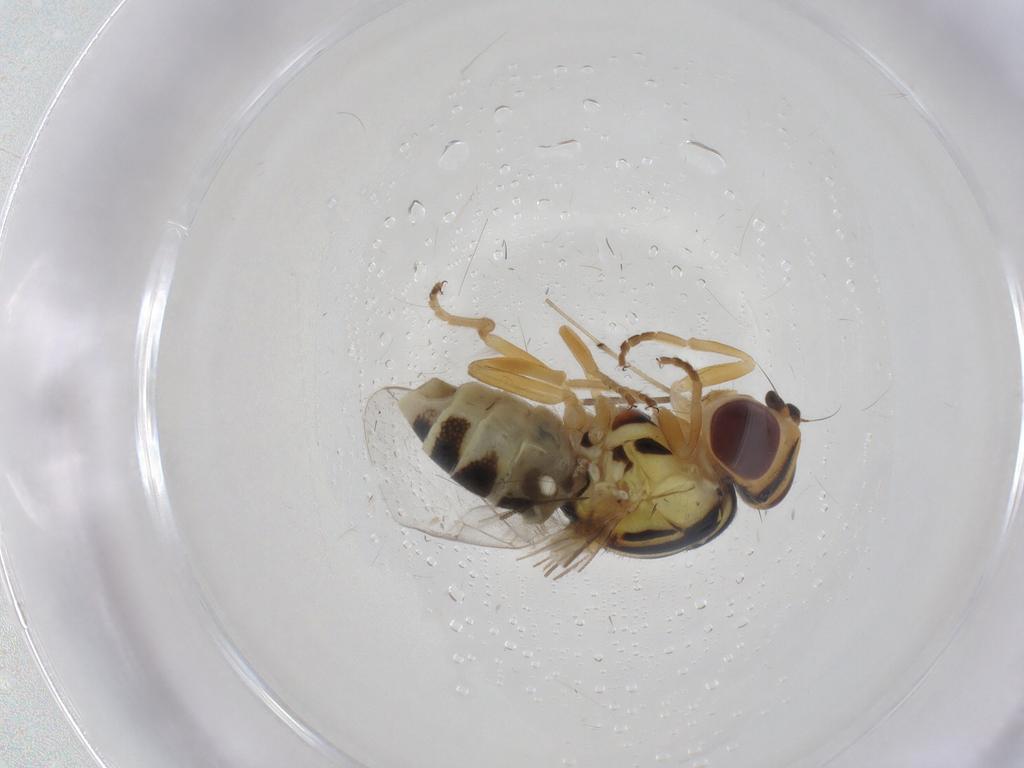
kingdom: Animalia
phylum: Arthropoda
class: Insecta
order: Diptera
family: Chloropidae
